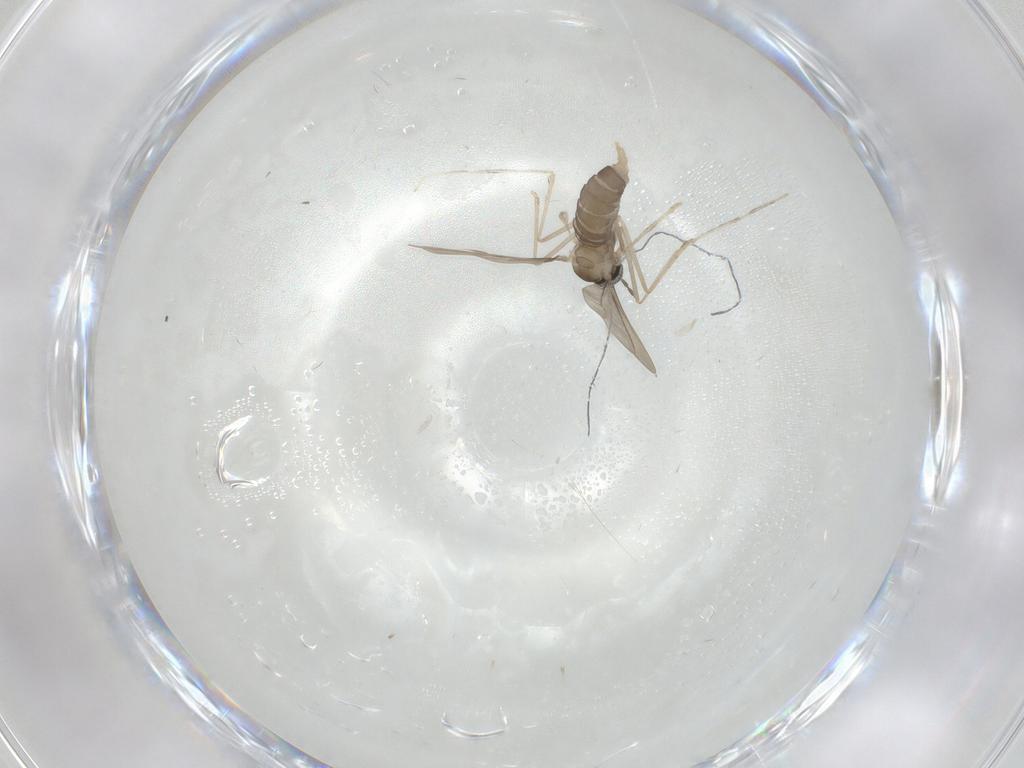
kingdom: Animalia
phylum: Arthropoda
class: Insecta
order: Diptera
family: Cecidomyiidae
